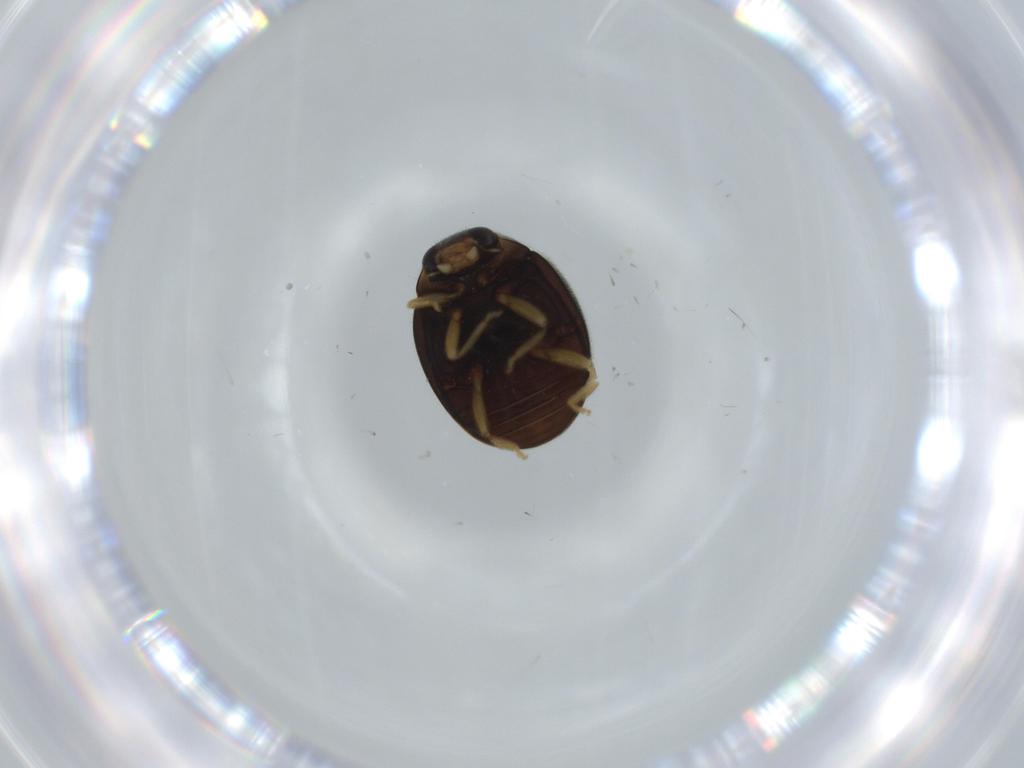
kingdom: Animalia
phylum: Arthropoda
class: Insecta
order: Coleoptera
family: Coccinellidae
